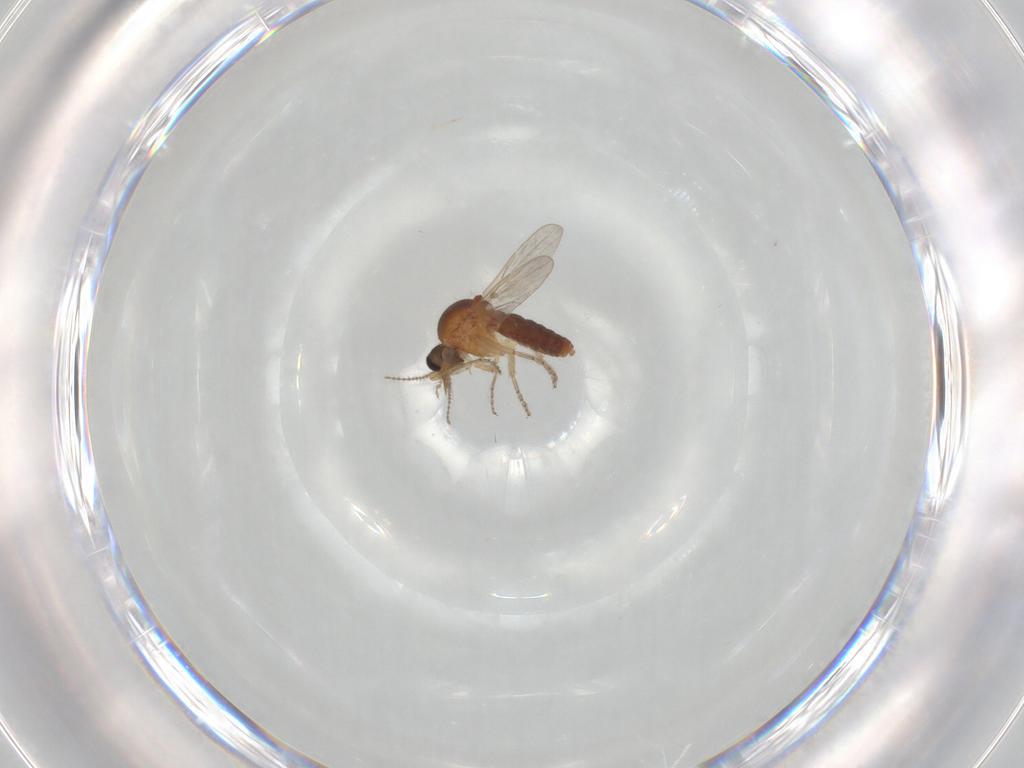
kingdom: Animalia
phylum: Arthropoda
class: Insecta
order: Diptera
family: Ceratopogonidae
